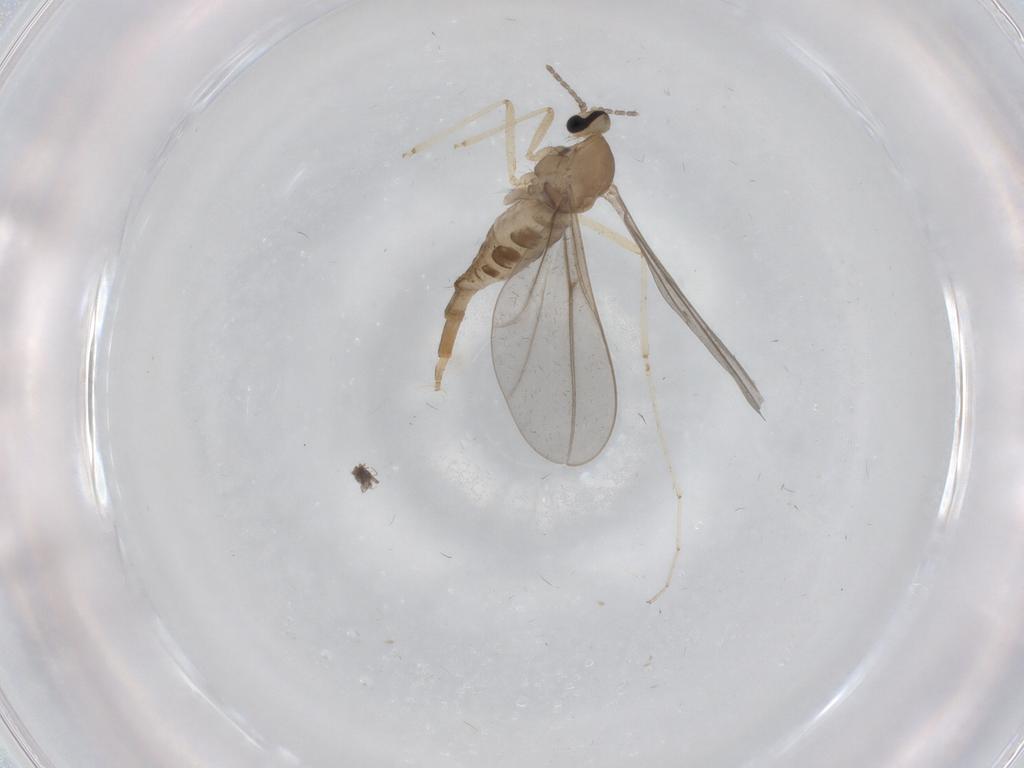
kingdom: Animalia
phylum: Arthropoda
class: Insecta
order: Diptera
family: Cecidomyiidae
